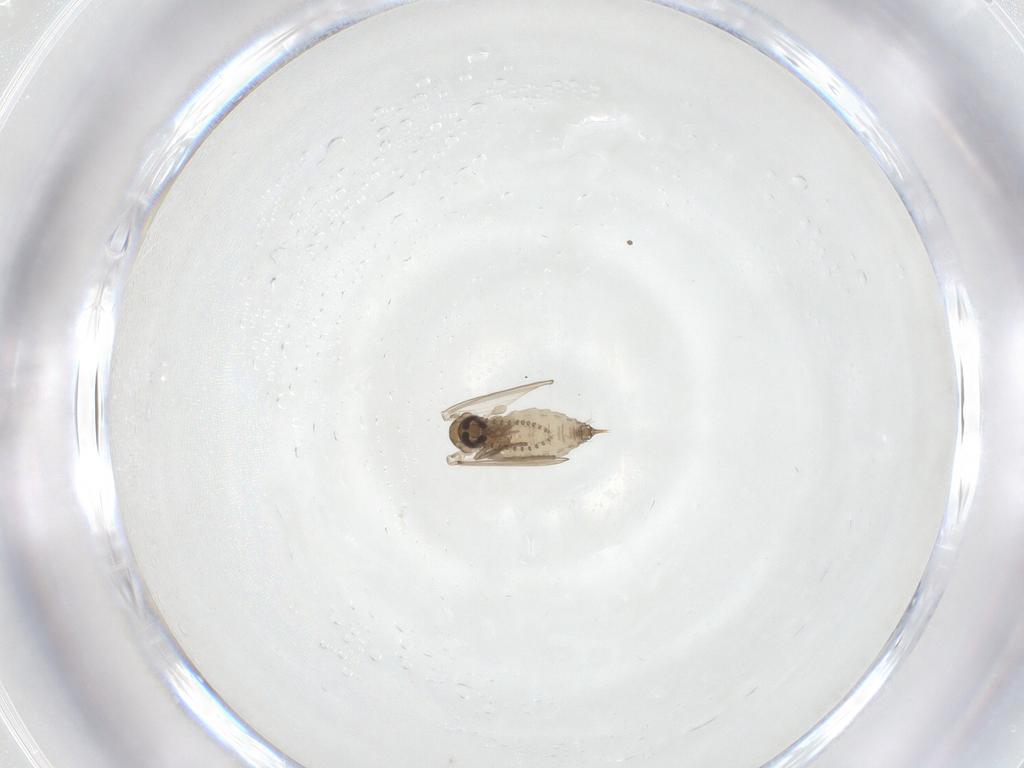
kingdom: Animalia
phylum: Arthropoda
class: Insecta
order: Diptera
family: Psychodidae
